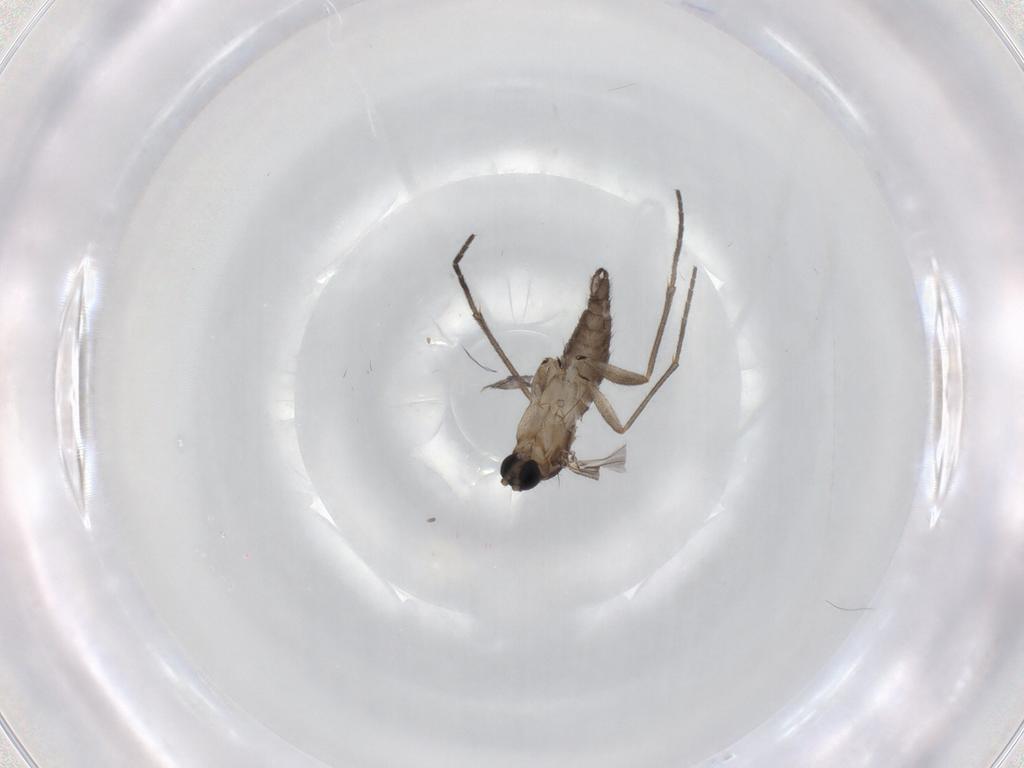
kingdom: Animalia
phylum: Arthropoda
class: Insecta
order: Diptera
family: Sciaridae
